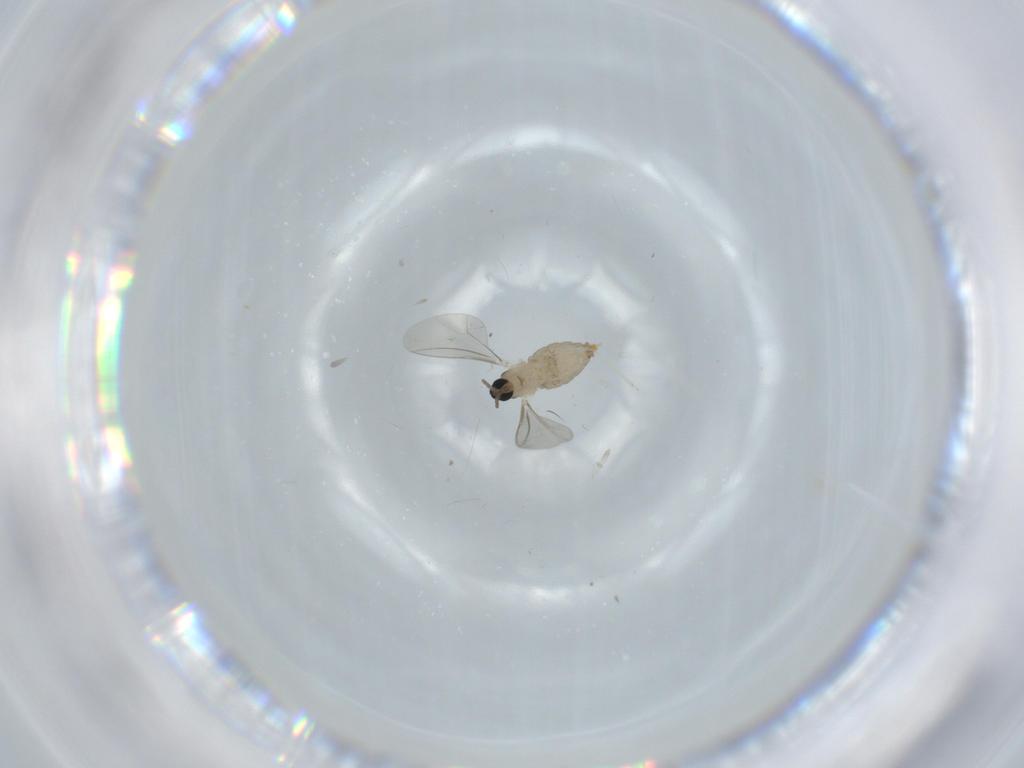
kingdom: Animalia
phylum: Arthropoda
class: Insecta
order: Diptera
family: Cecidomyiidae
